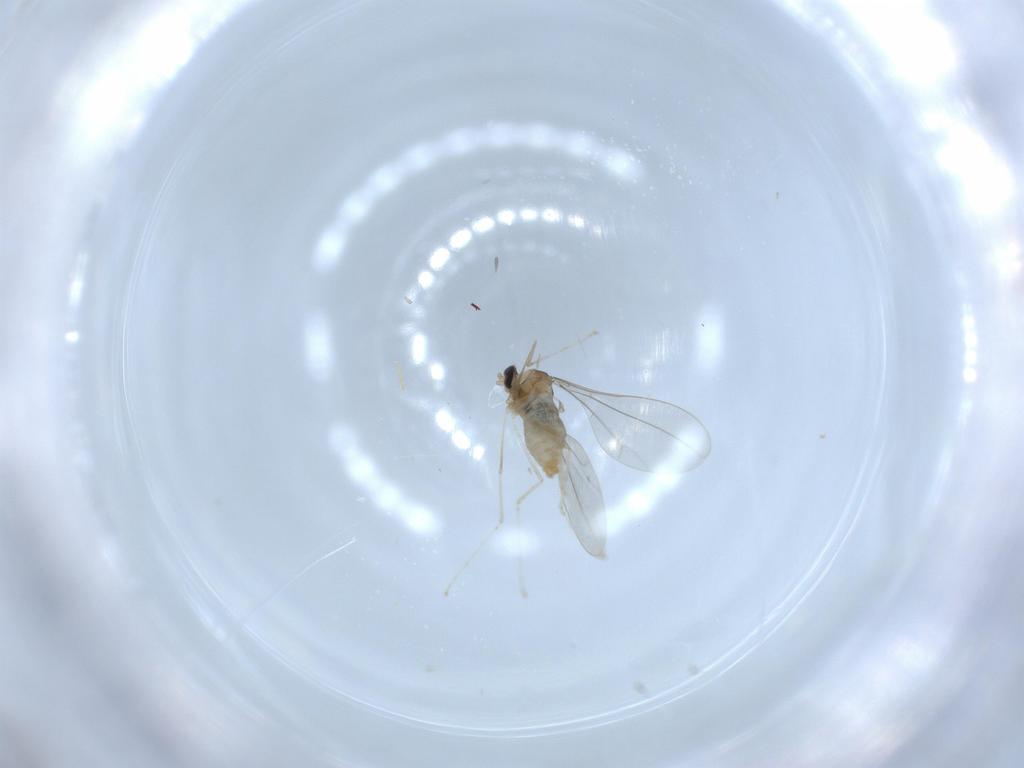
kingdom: Animalia
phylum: Arthropoda
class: Insecta
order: Diptera
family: Cecidomyiidae
